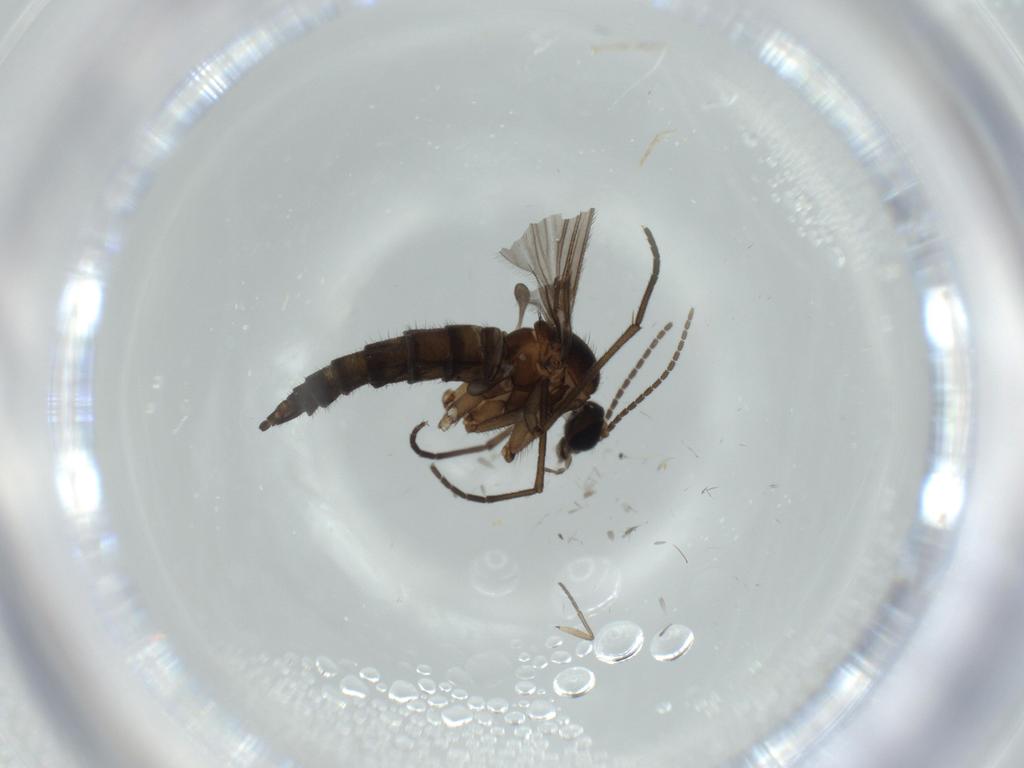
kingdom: Animalia
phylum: Arthropoda
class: Insecta
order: Diptera
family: Sciaridae
